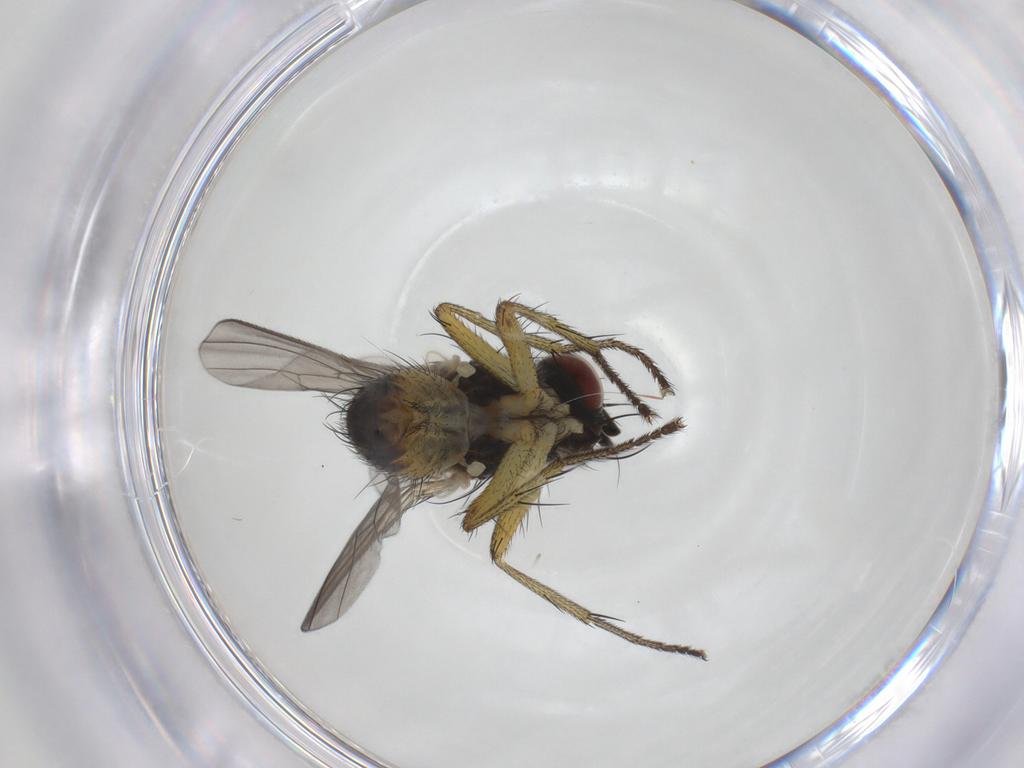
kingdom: Animalia
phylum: Arthropoda
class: Insecta
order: Diptera
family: Muscidae
